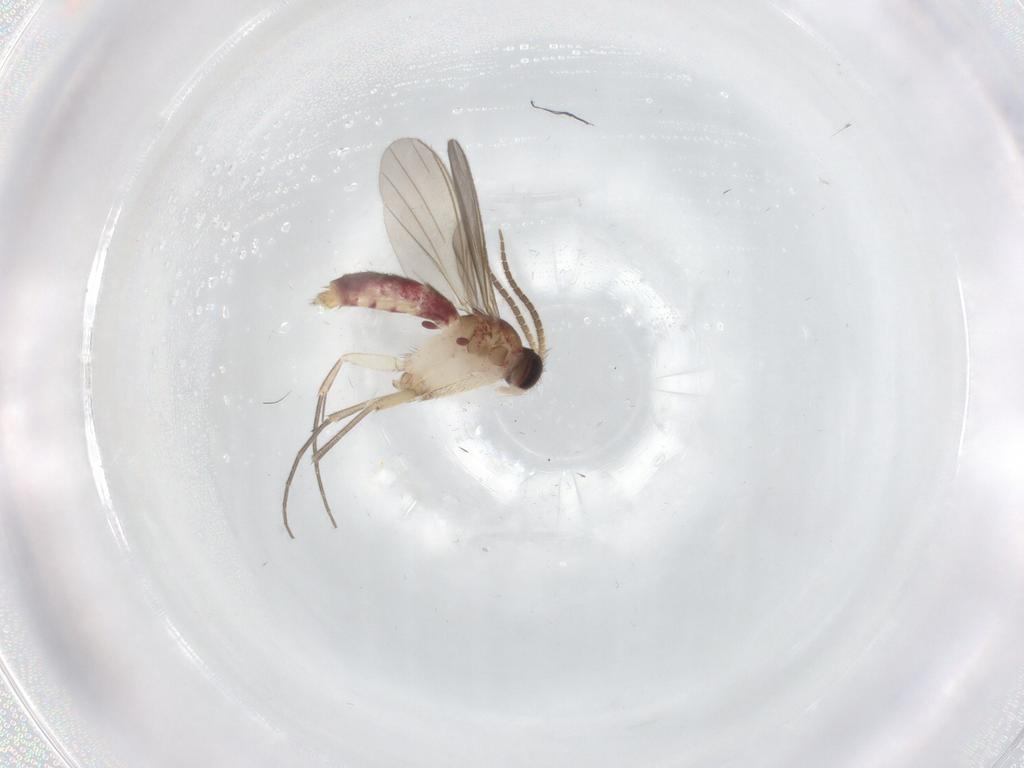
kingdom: Animalia
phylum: Arthropoda
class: Insecta
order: Diptera
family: Mycetophilidae
